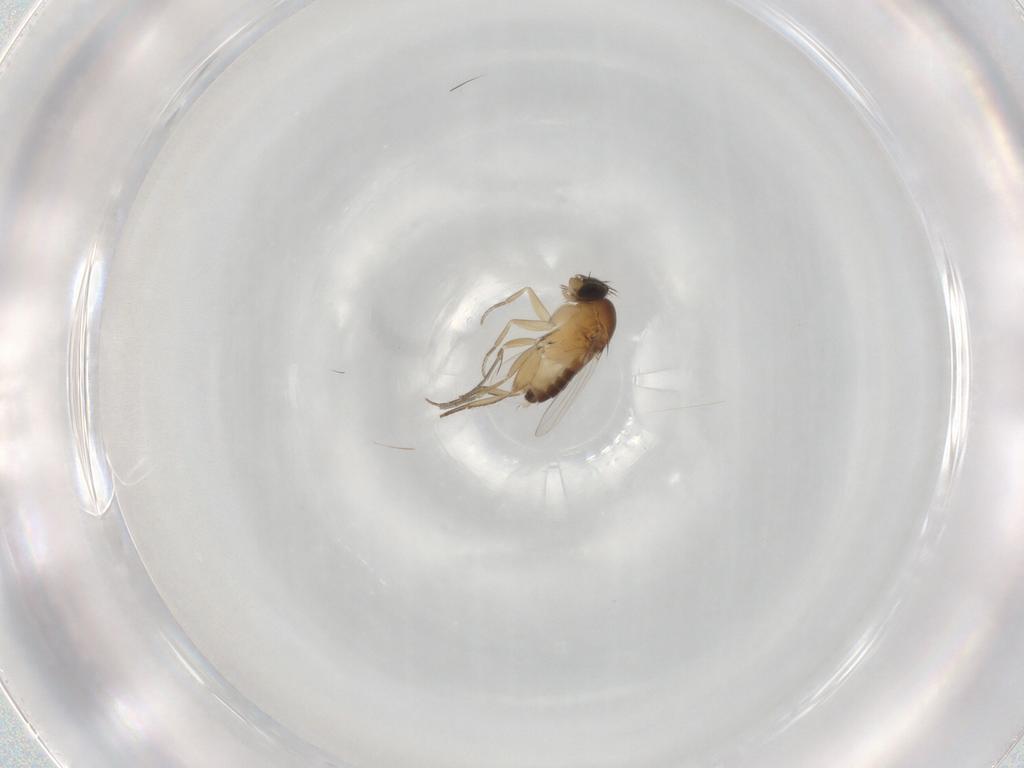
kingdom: Animalia
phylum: Arthropoda
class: Insecta
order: Diptera
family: Phoridae
